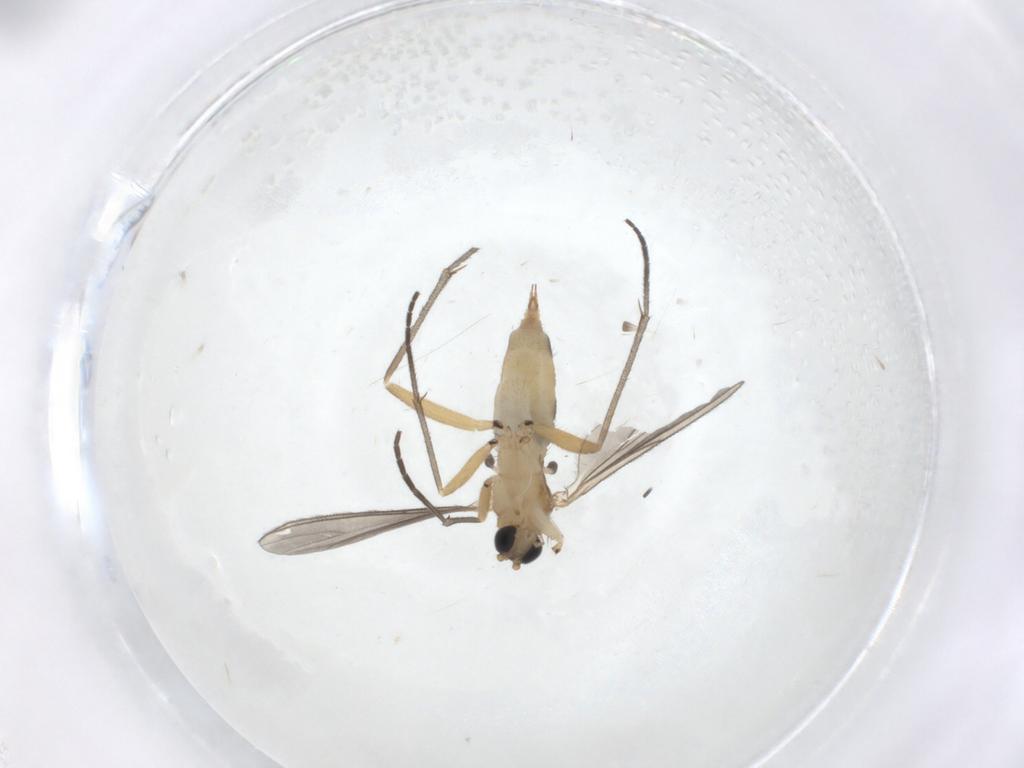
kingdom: Animalia
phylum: Arthropoda
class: Insecta
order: Diptera
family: Sciaridae
